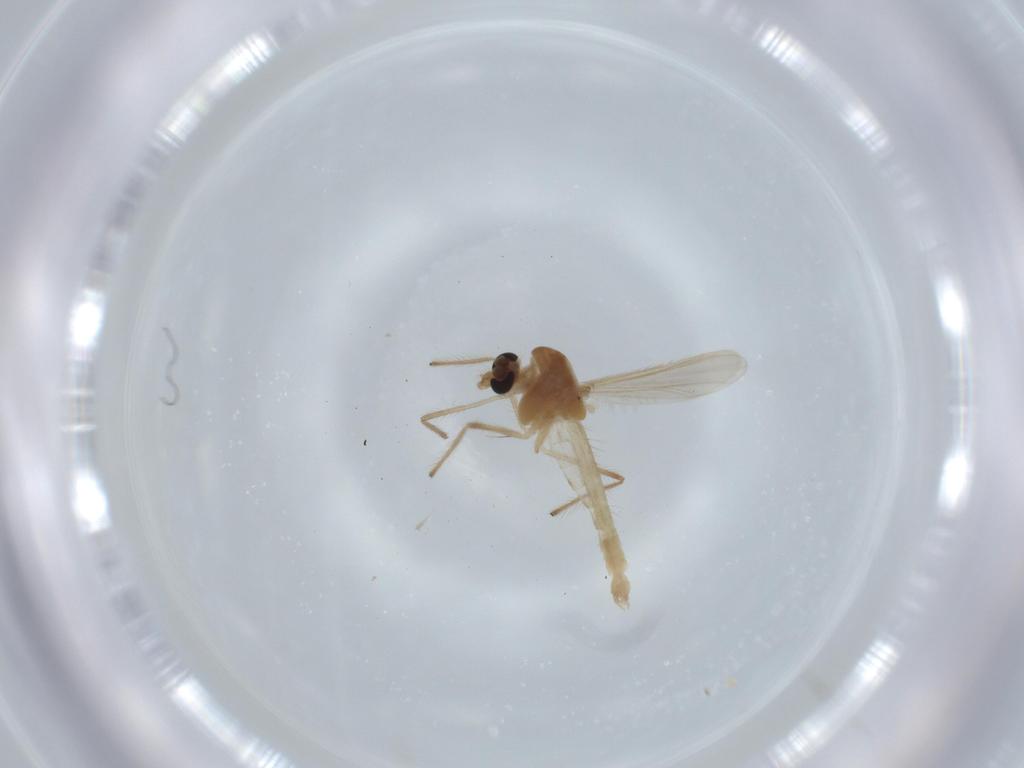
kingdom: Animalia
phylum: Arthropoda
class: Insecta
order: Diptera
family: Chironomidae
